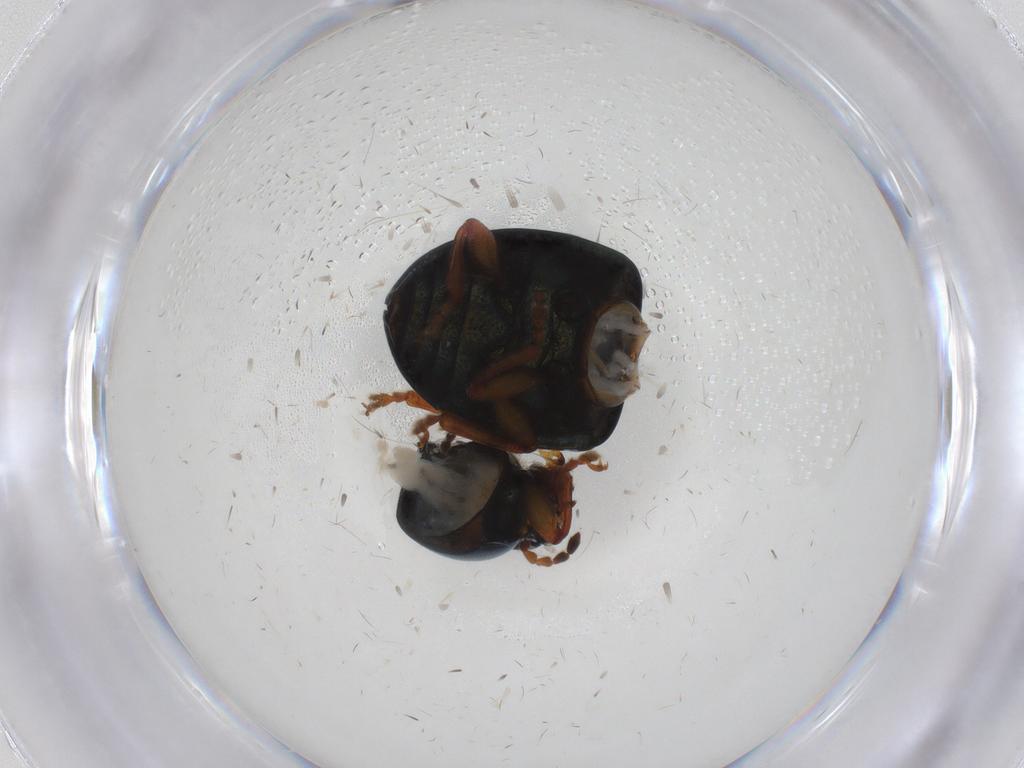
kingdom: Animalia
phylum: Arthropoda
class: Insecta
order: Coleoptera
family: Chrysomelidae
